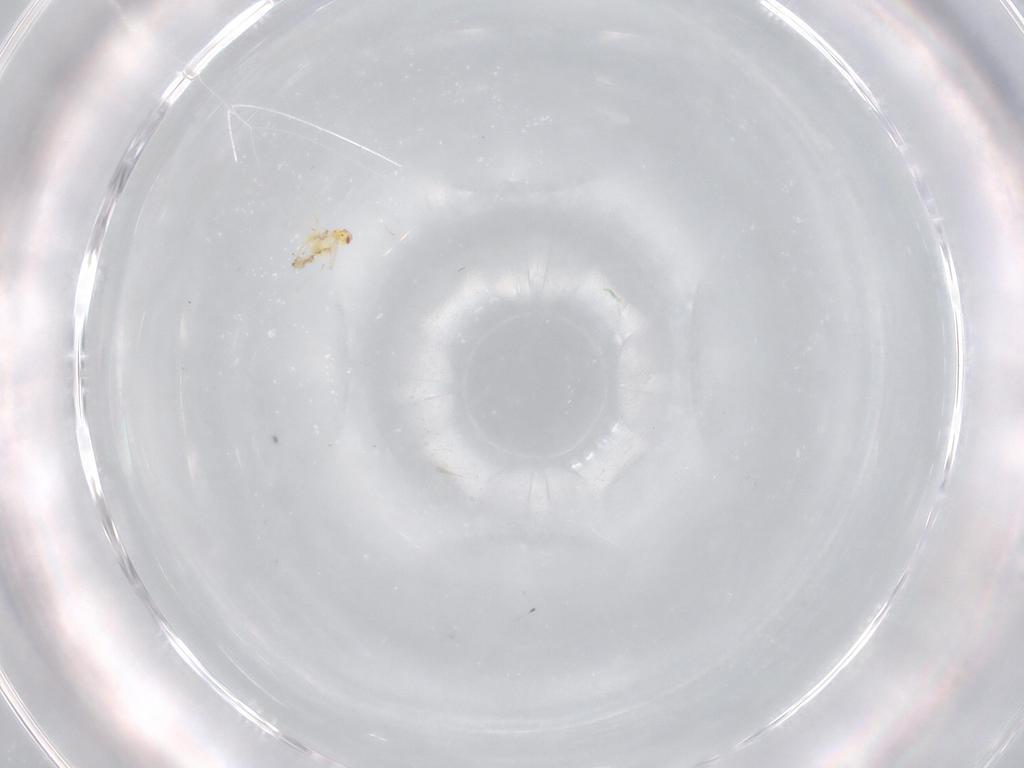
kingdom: Animalia
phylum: Arthropoda
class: Insecta
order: Hymenoptera
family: Trichogrammatidae
